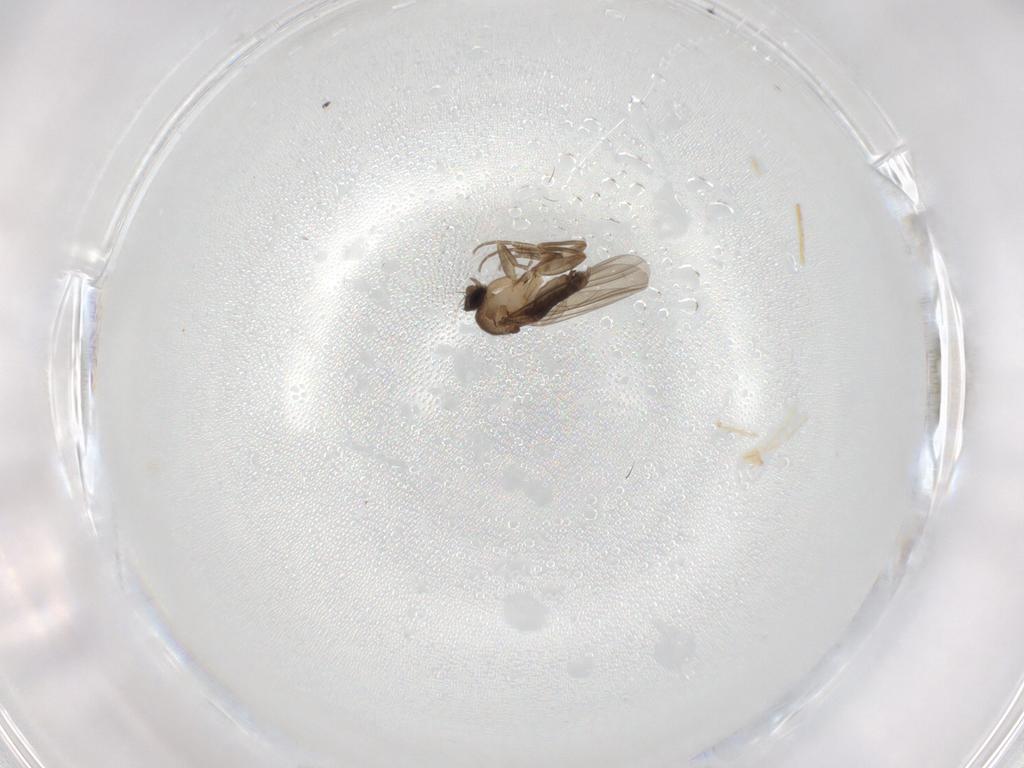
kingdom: Animalia
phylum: Arthropoda
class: Insecta
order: Diptera
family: Phoridae
